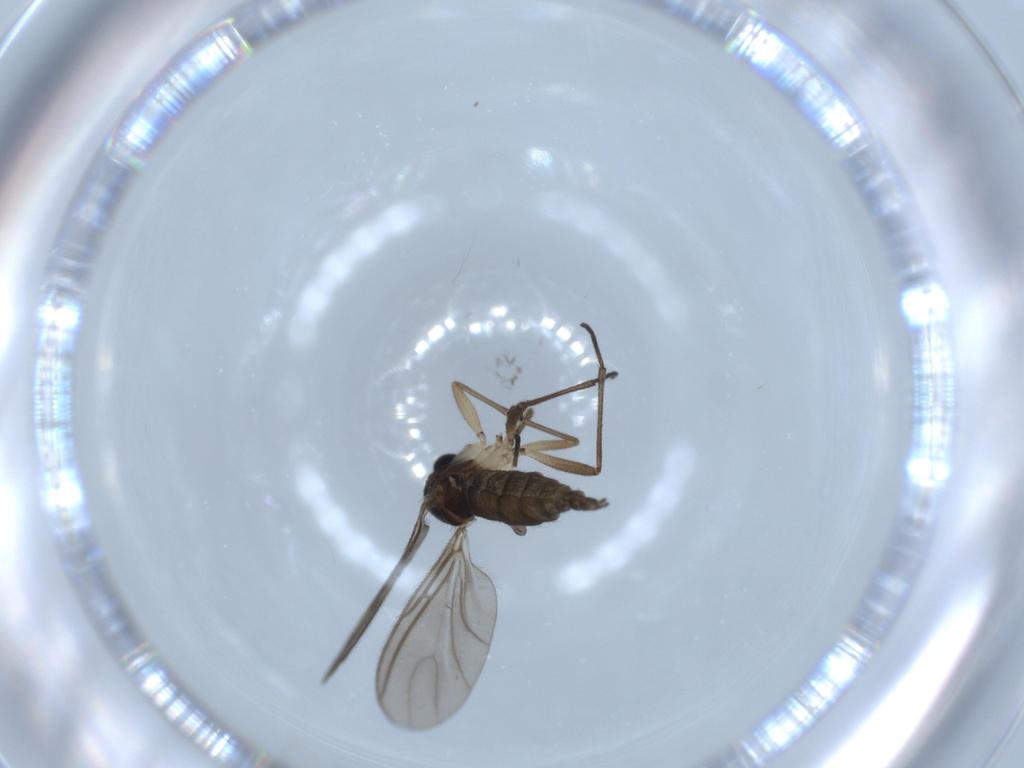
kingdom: Animalia
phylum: Arthropoda
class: Insecta
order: Diptera
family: Sciaridae
